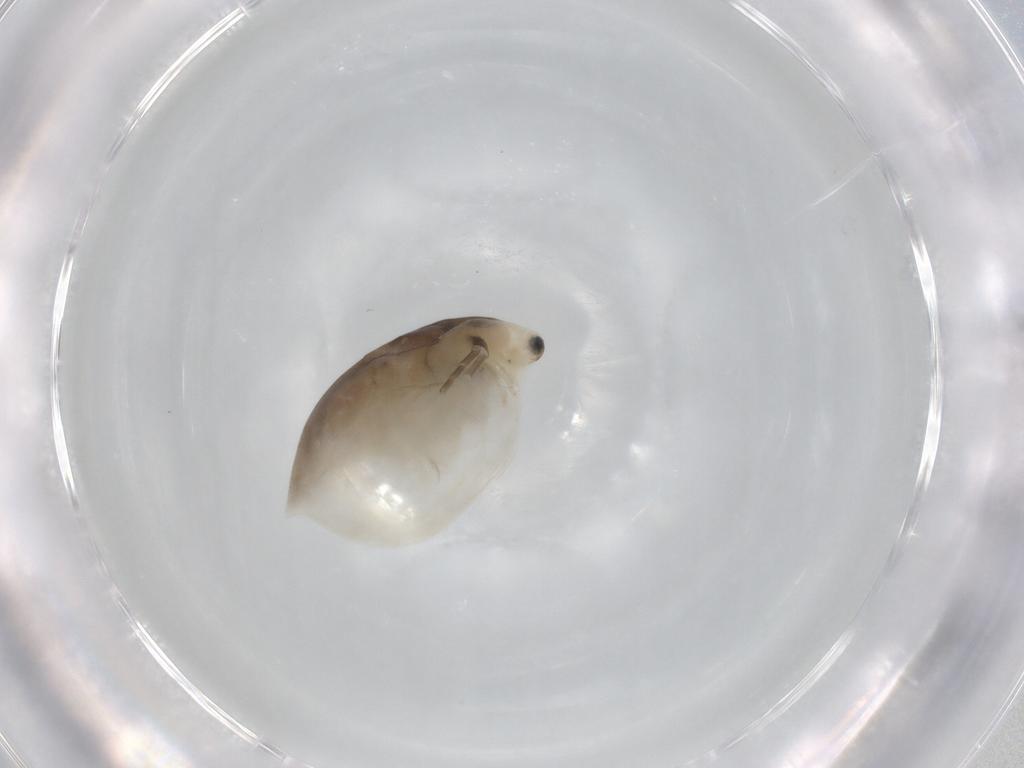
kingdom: Animalia
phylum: Arthropoda
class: Branchiopoda
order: Diplostraca
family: Daphniidae
